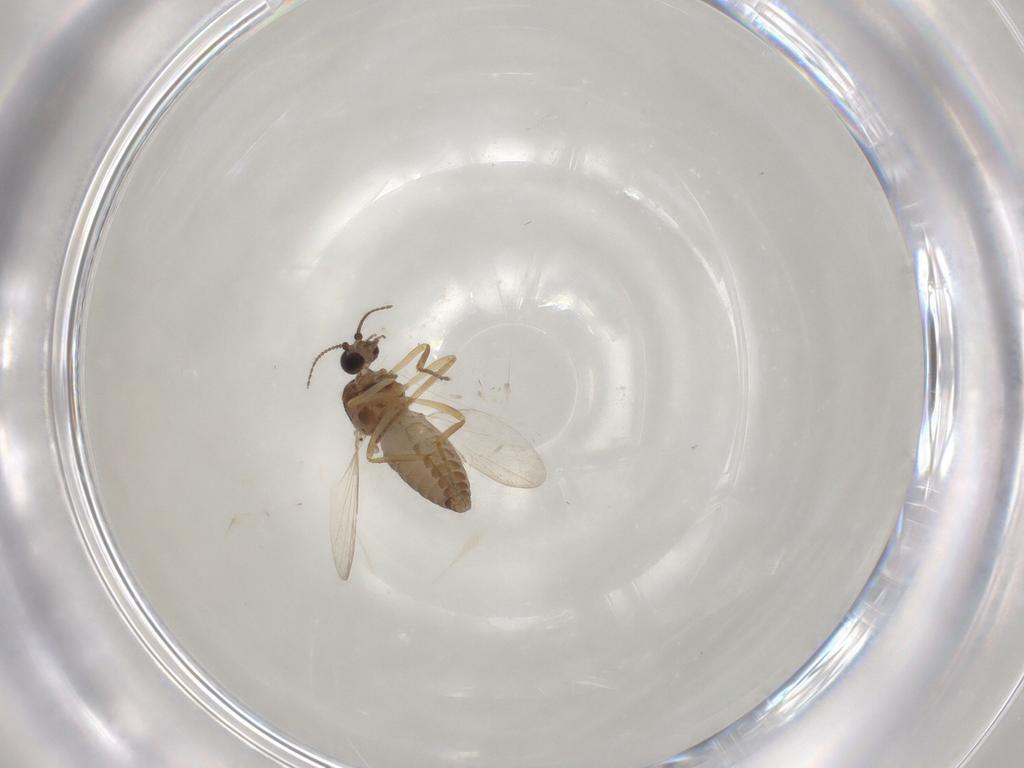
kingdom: Animalia
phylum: Arthropoda
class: Insecta
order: Diptera
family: Ceratopogonidae
